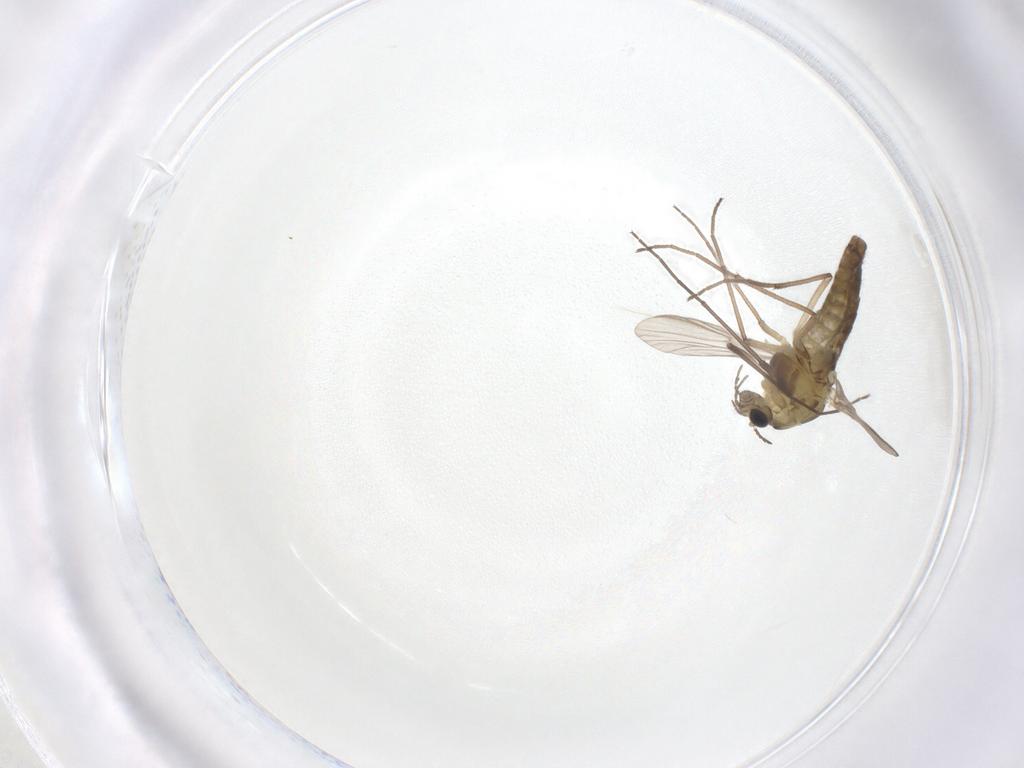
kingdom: Animalia
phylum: Arthropoda
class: Insecta
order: Diptera
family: Chironomidae
